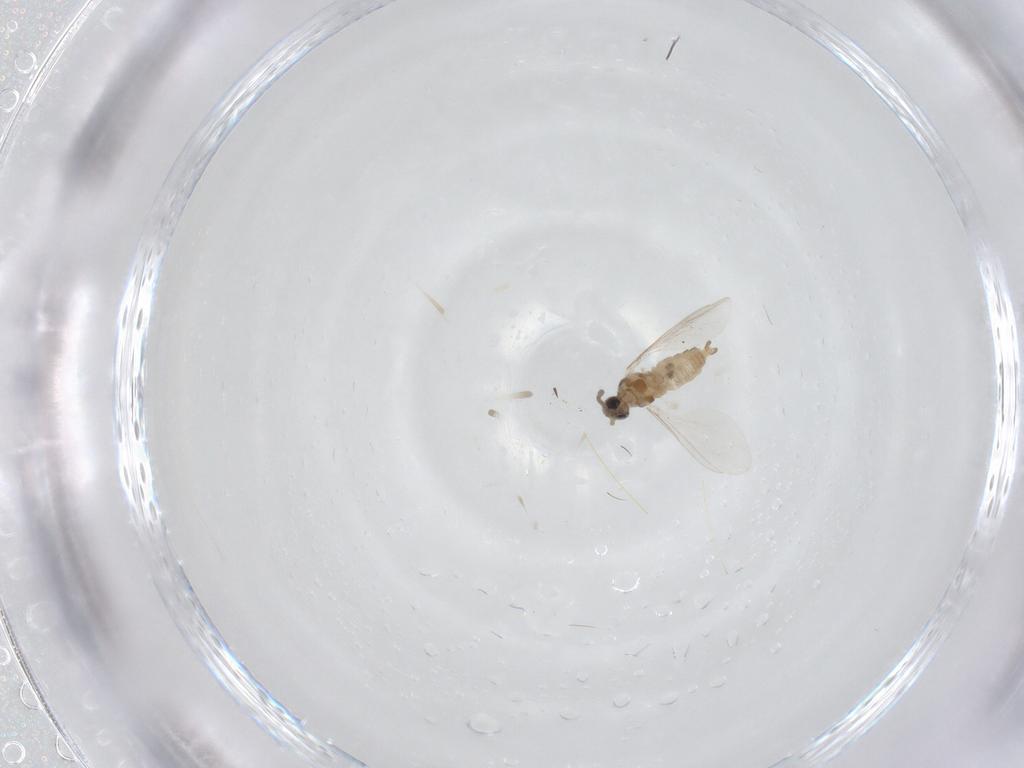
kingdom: Animalia
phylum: Arthropoda
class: Insecta
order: Diptera
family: Cecidomyiidae
